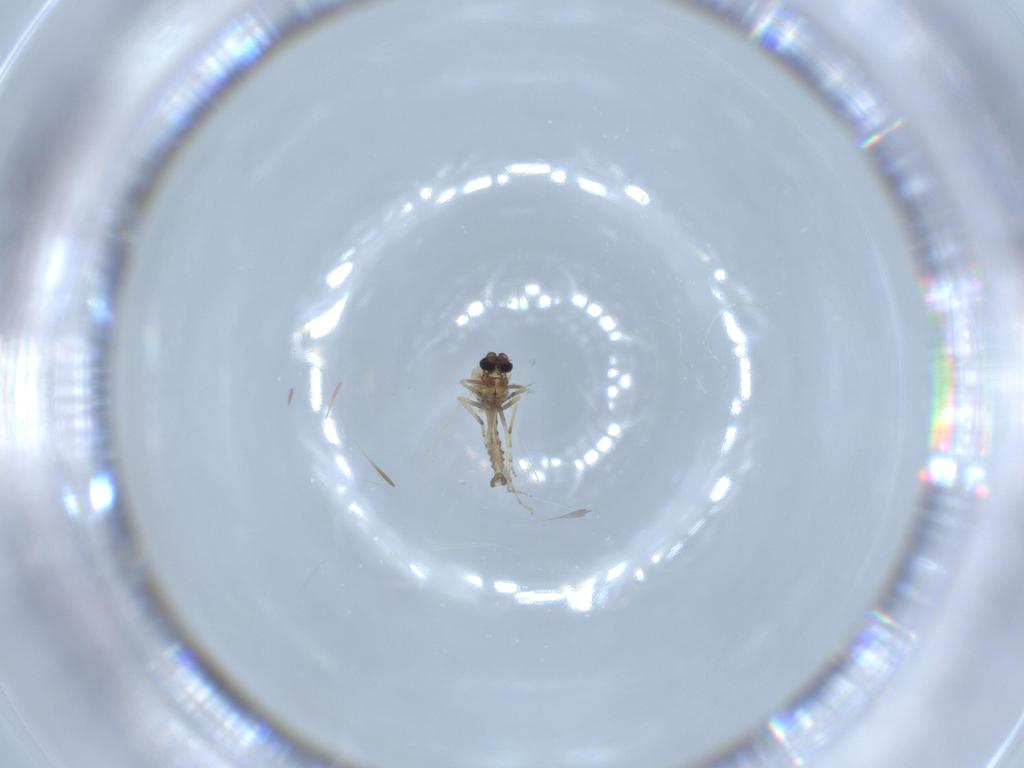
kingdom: Animalia
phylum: Arthropoda
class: Insecta
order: Diptera
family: Ceratopogonidae
